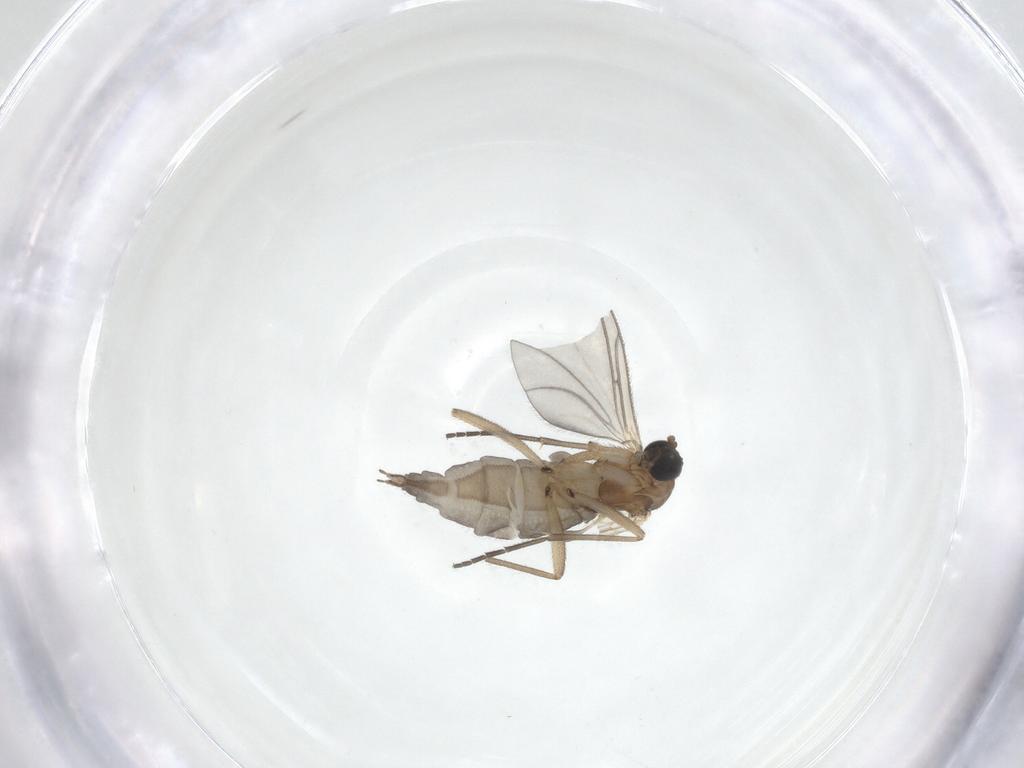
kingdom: Animalia
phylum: Arthropoda
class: Insecta
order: Diptera
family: Sciaridae
